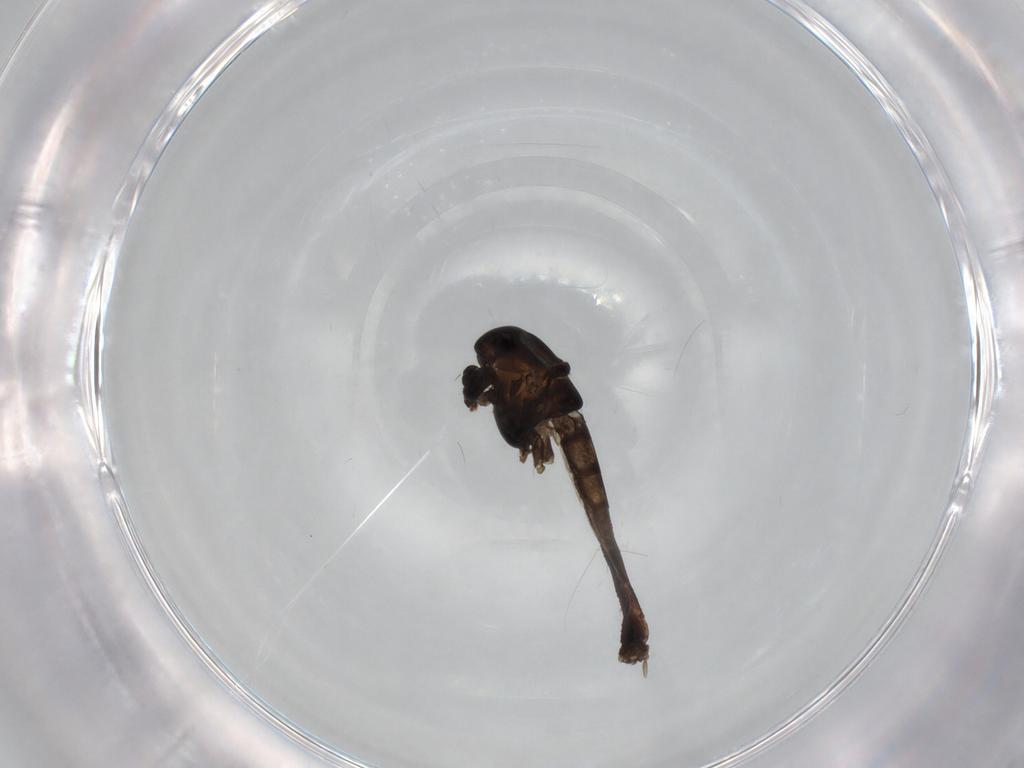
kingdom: Animalia
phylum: Arthropoda
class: Insecta
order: Diptera
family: Chironomidae
